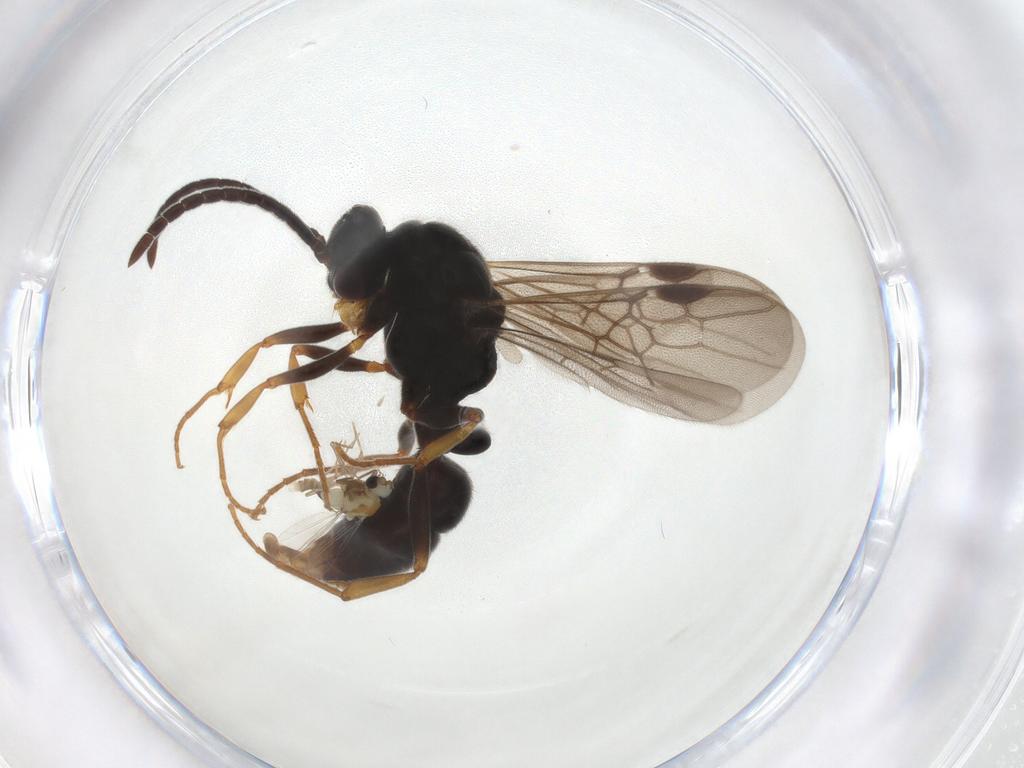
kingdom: Animalia
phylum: Arthropoda
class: Insecta
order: Hymenoptera
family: Formicidae
